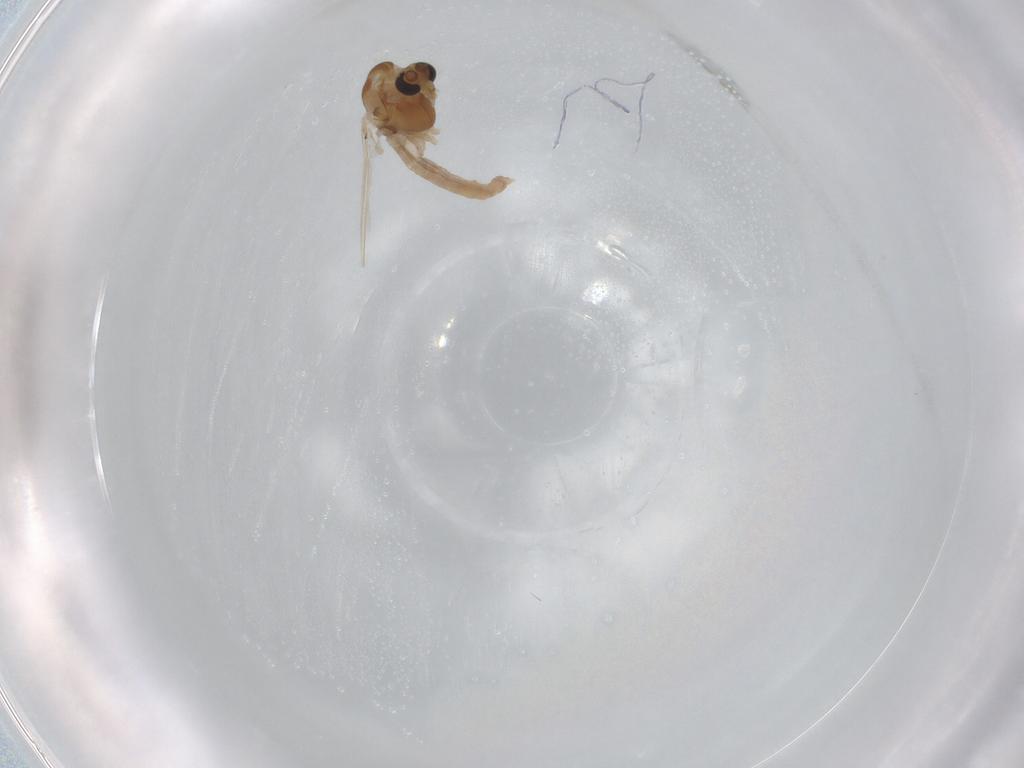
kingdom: Animalia
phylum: Arthropoda
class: Insecta
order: Diptera
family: Chironomidae
